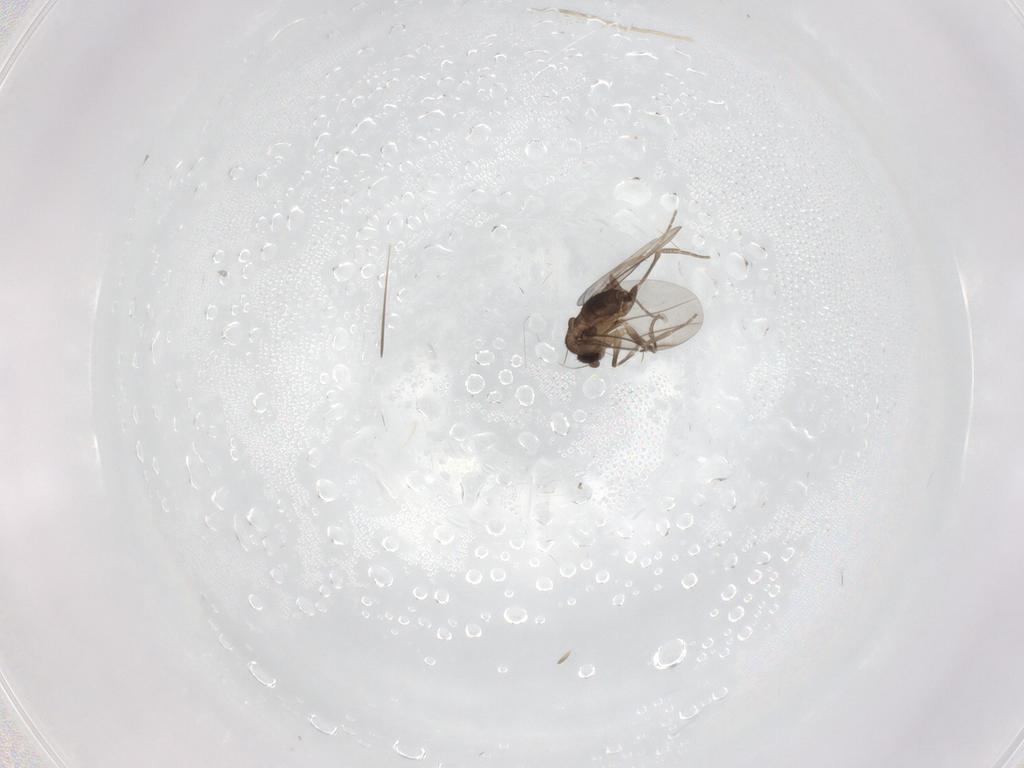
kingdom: Animalia
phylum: Arthropoda
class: Insecta
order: Diptera
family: Phoridae
